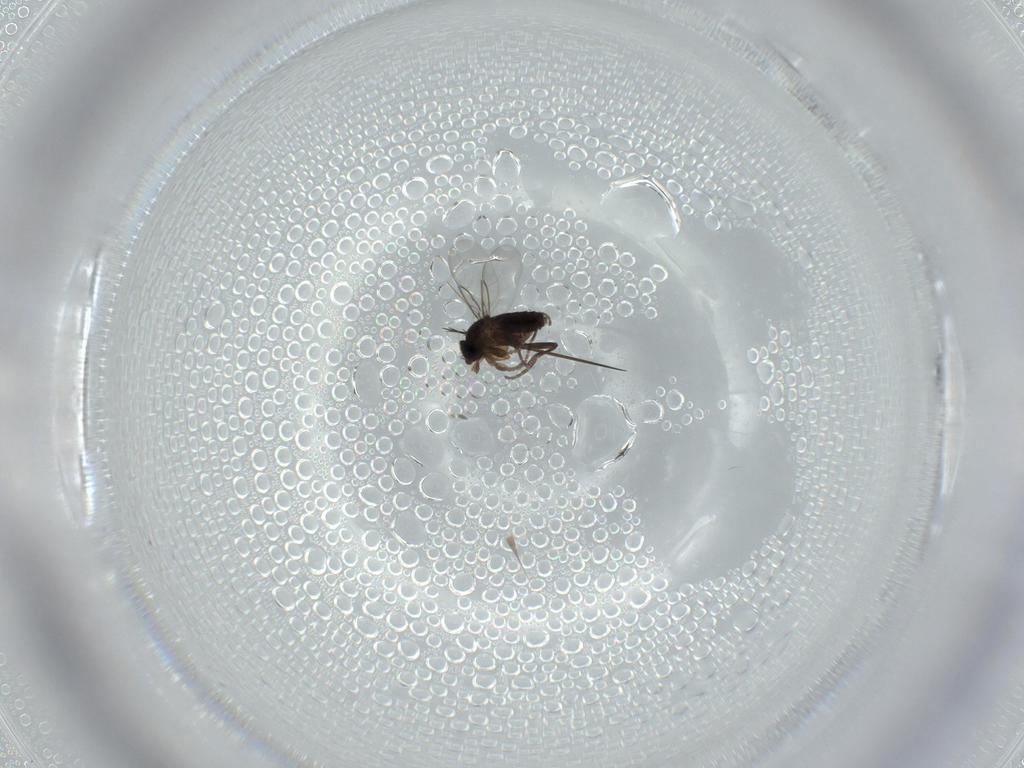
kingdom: Animalia
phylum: Arthropoda
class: Insecta
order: Diptera
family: Phoridae
